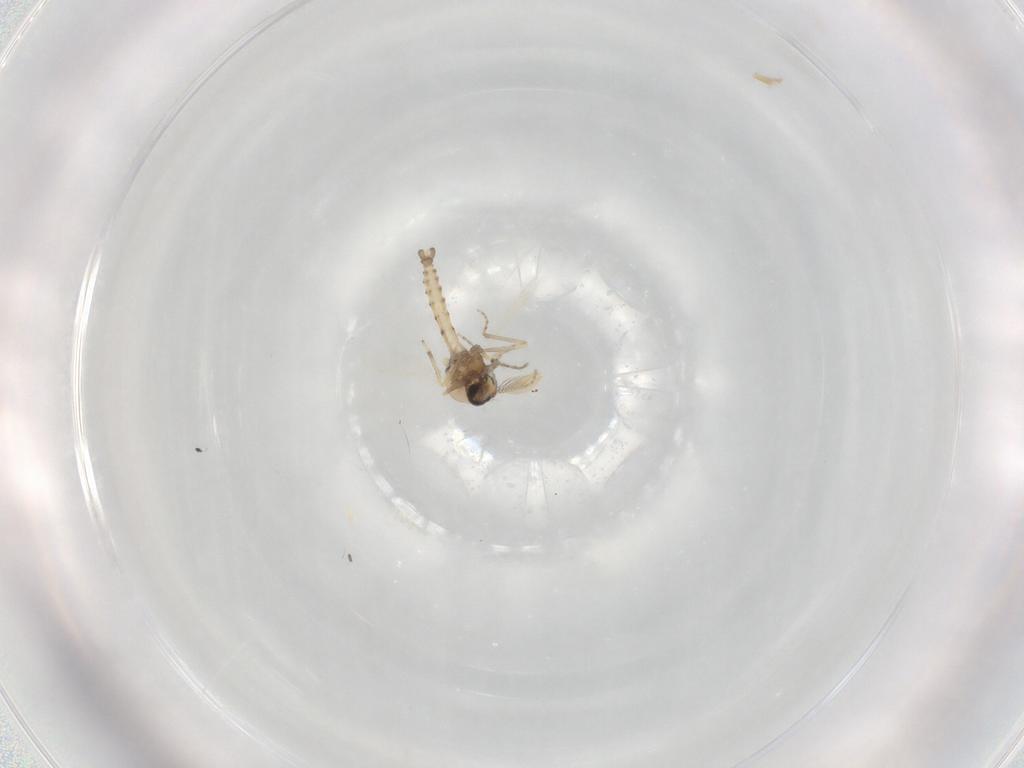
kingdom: Animalia
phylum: Arthropoda
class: Insecta
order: Diptera
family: Ceratopogonidae
